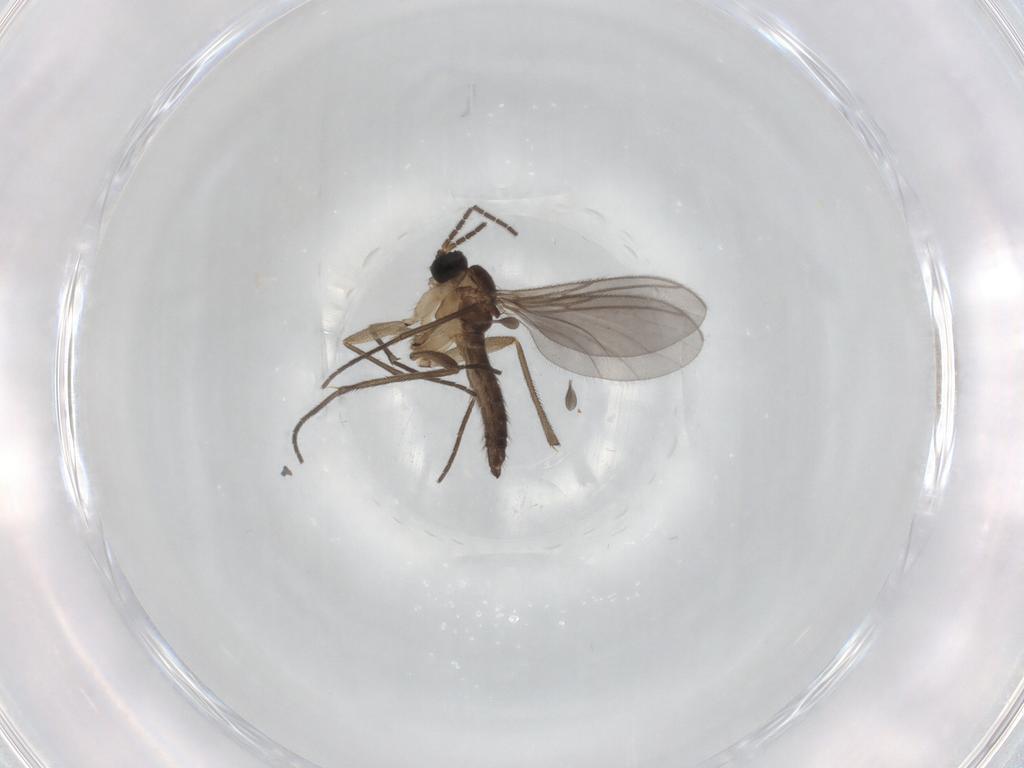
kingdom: Animalia
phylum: Arthropoda
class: Insecta
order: Diptera
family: Sciaridae
